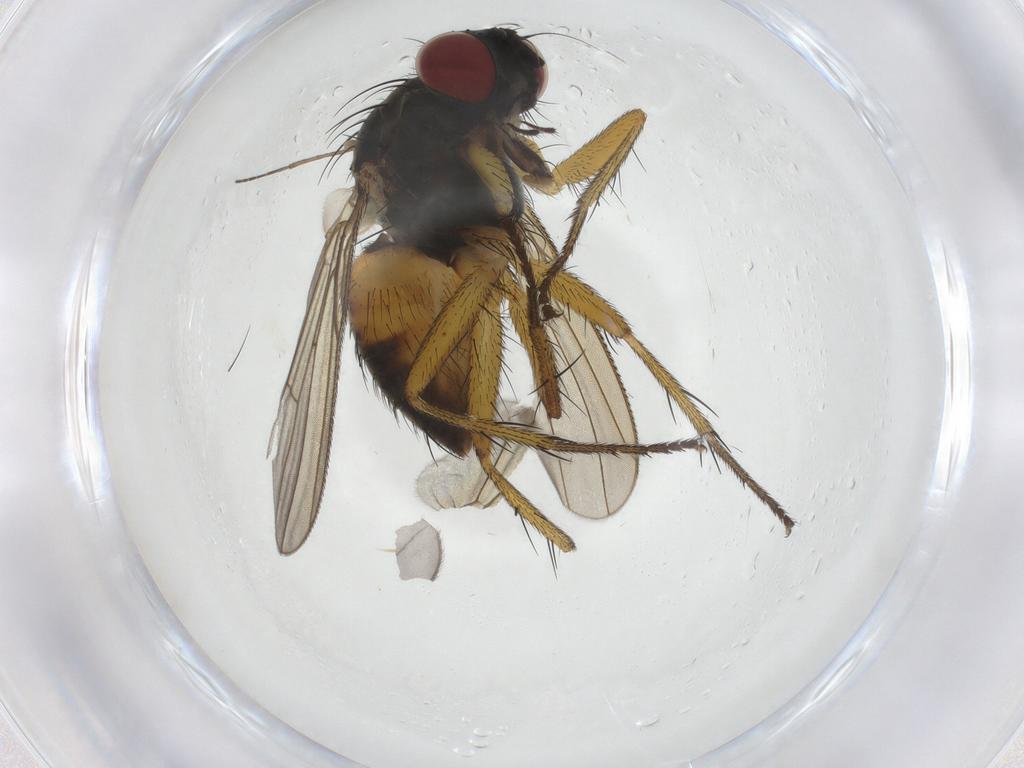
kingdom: Animalia
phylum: Arthropoda
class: Insecta
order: Diptera
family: Muscidae
